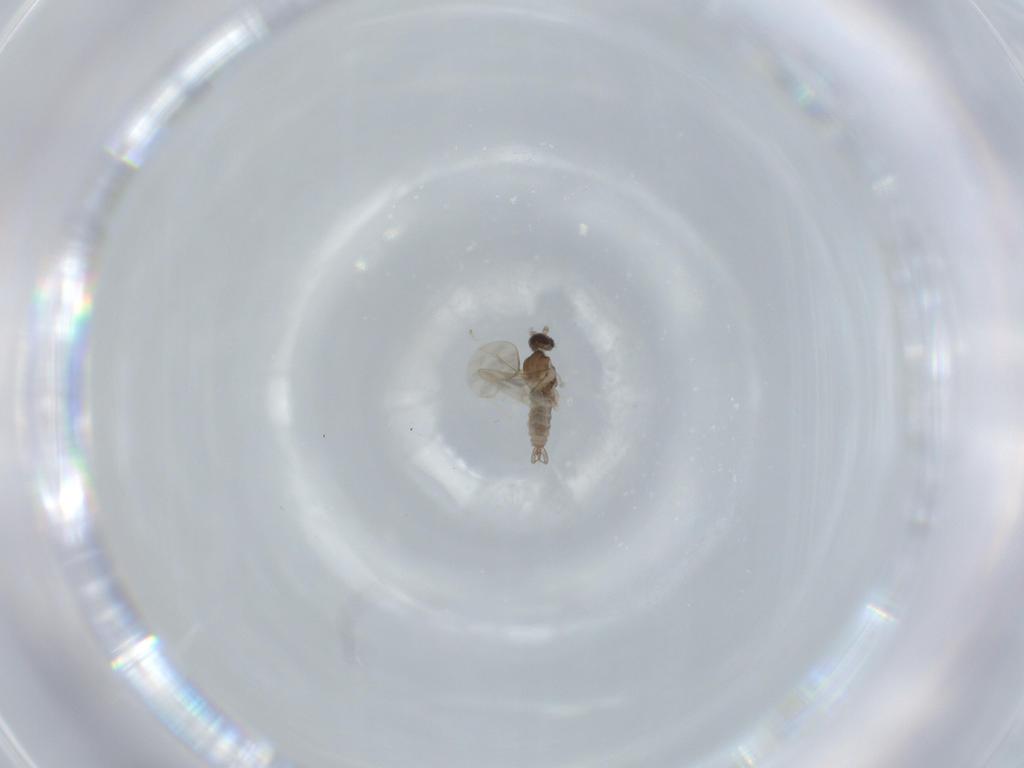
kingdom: Animalia
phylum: Arthropoda
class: Insecta
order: Diptera
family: Cecidomyiidae
